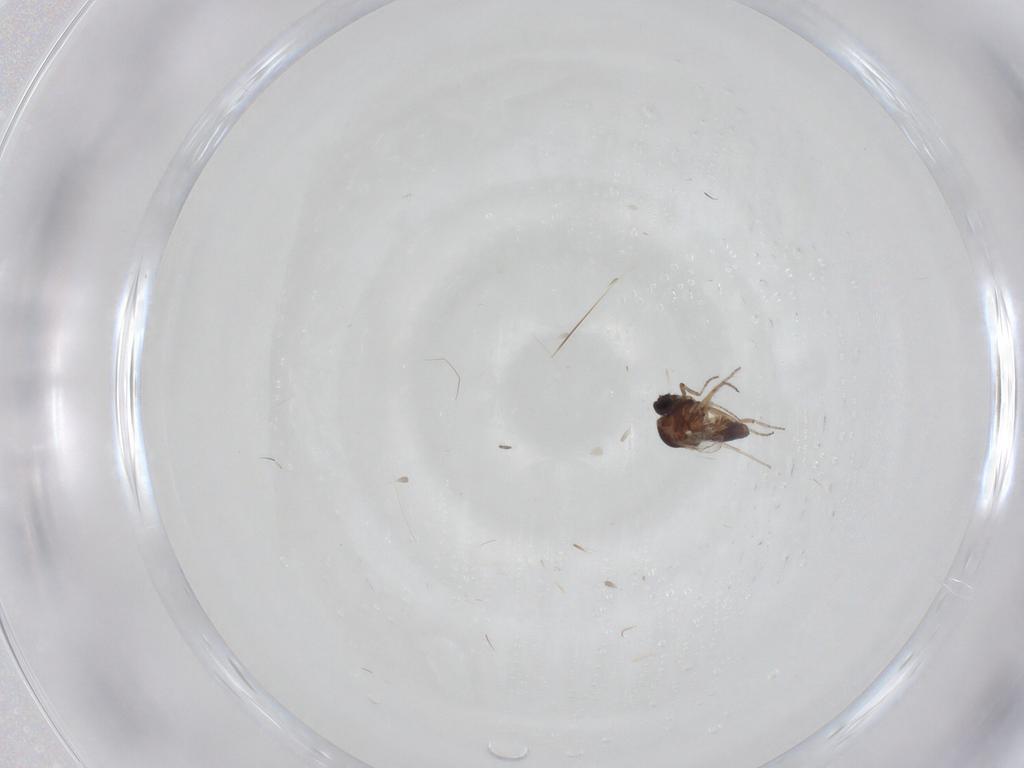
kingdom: Animalia
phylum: Arthropoda
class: Insecta
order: Diptera
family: Ceratopogonidae
